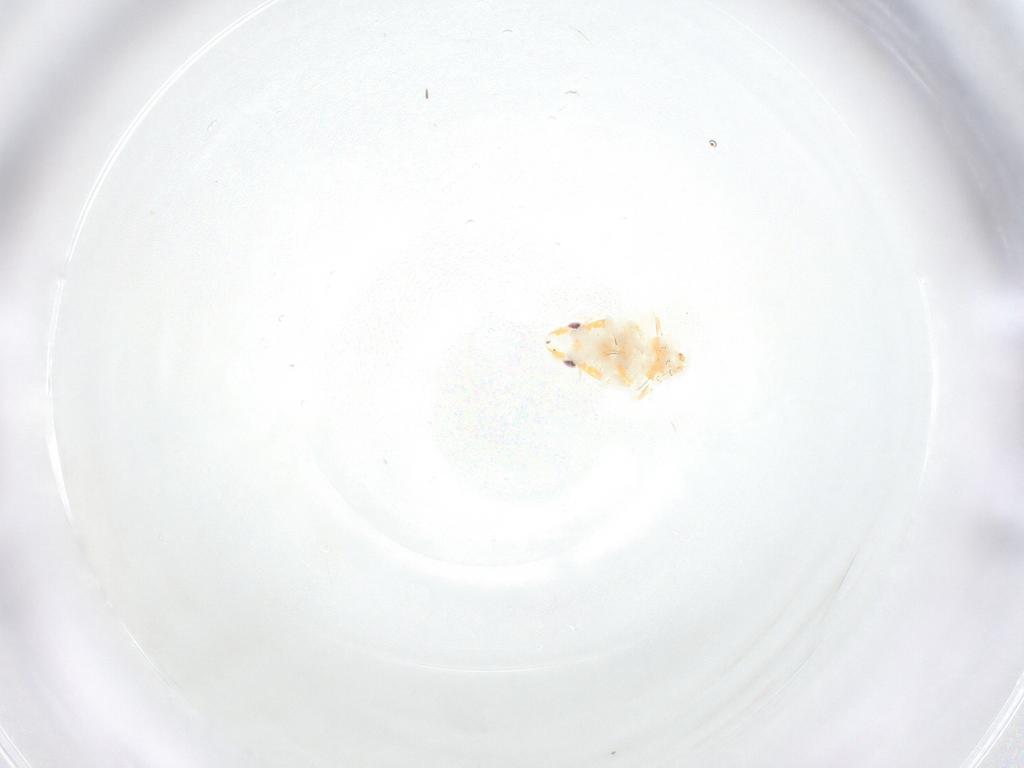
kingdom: Animalia
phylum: Arthropoda
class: Insecta
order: Hemiptera
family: Tropiduchidae
